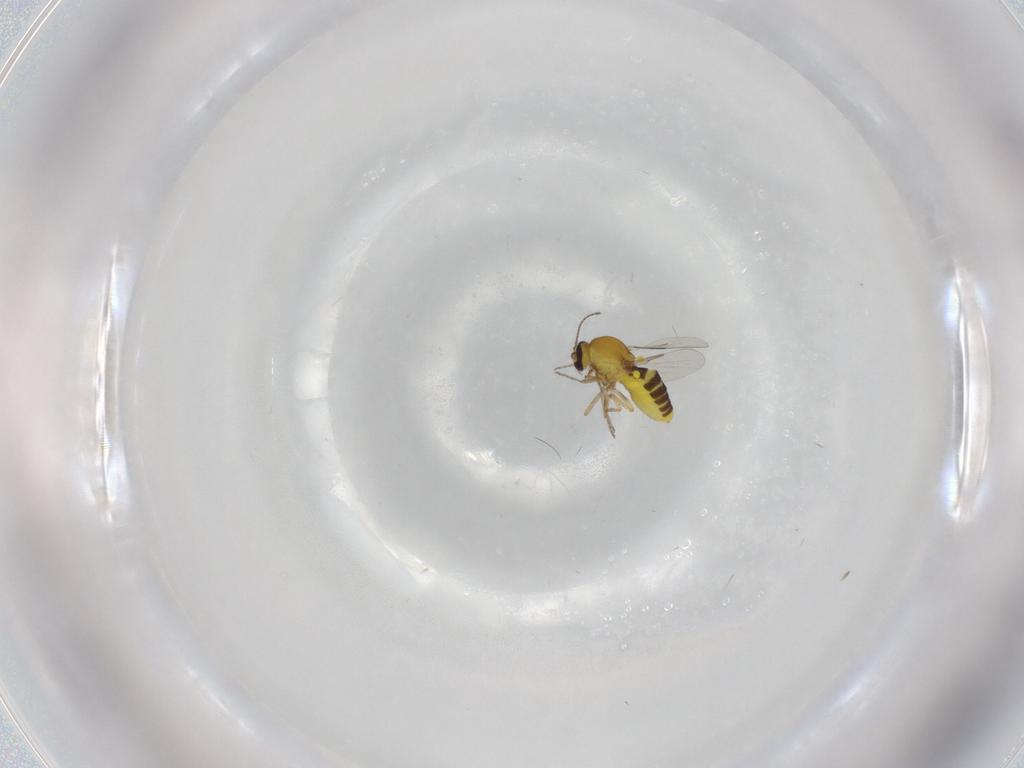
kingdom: Animalia
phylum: Arthropoda
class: Insecta
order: Diptera
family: Ceratopogonidae
